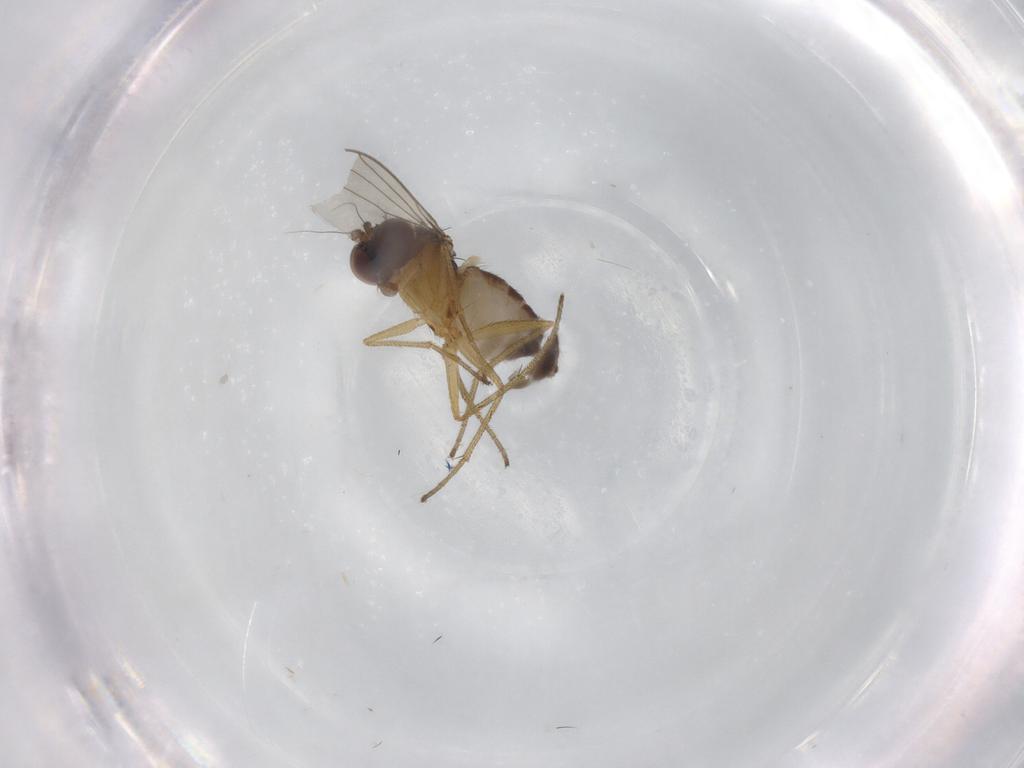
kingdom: Animalia
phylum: Arthropoda
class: Insecta
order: Diptera
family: Dolichopodidae
